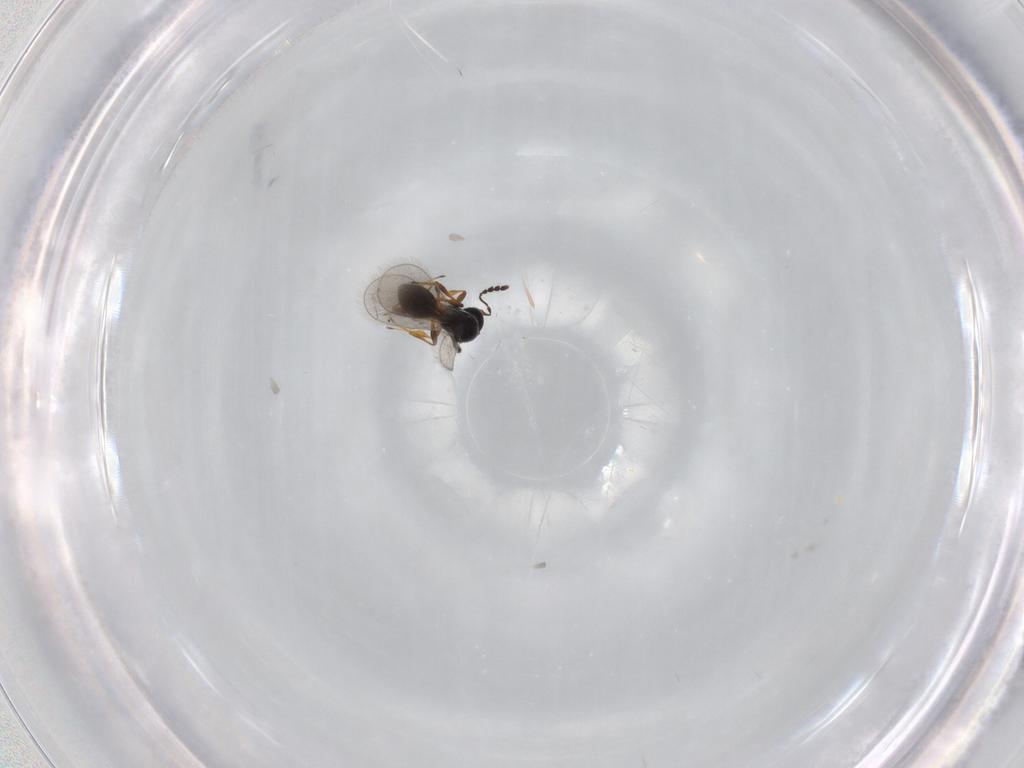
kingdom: Animalia
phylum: Arthropoda
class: Insecta
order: Hymenoptera
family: Platygastridae
